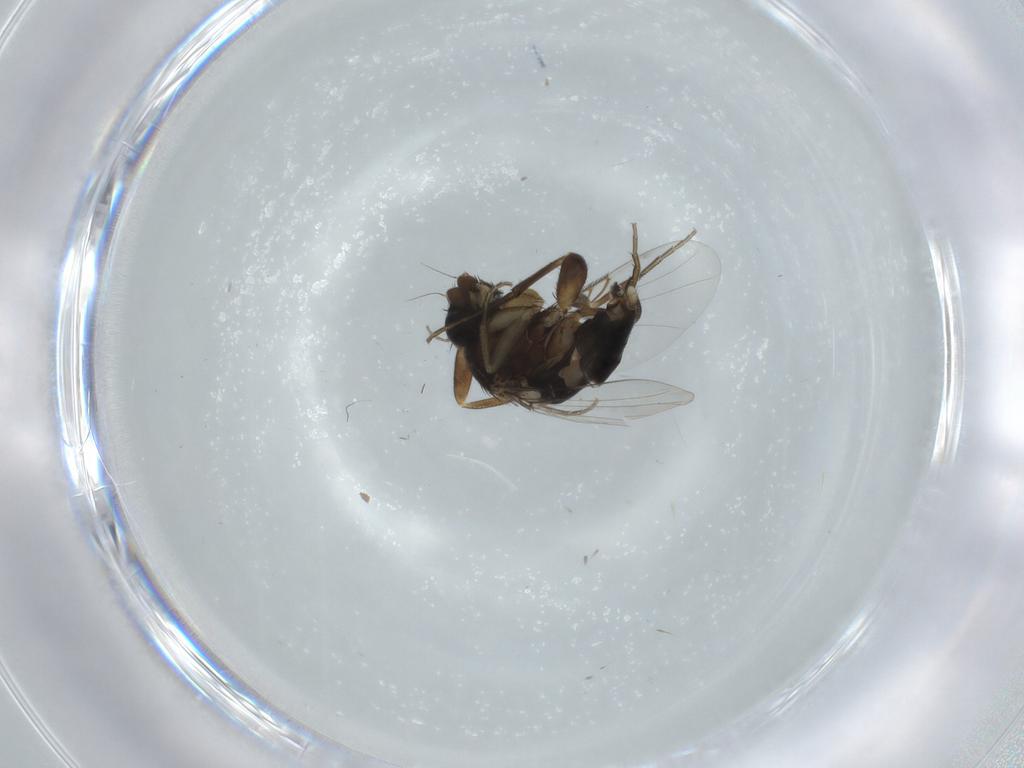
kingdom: Animalia
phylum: Arthropoda
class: Insecta
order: Diptera
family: Phoridae
